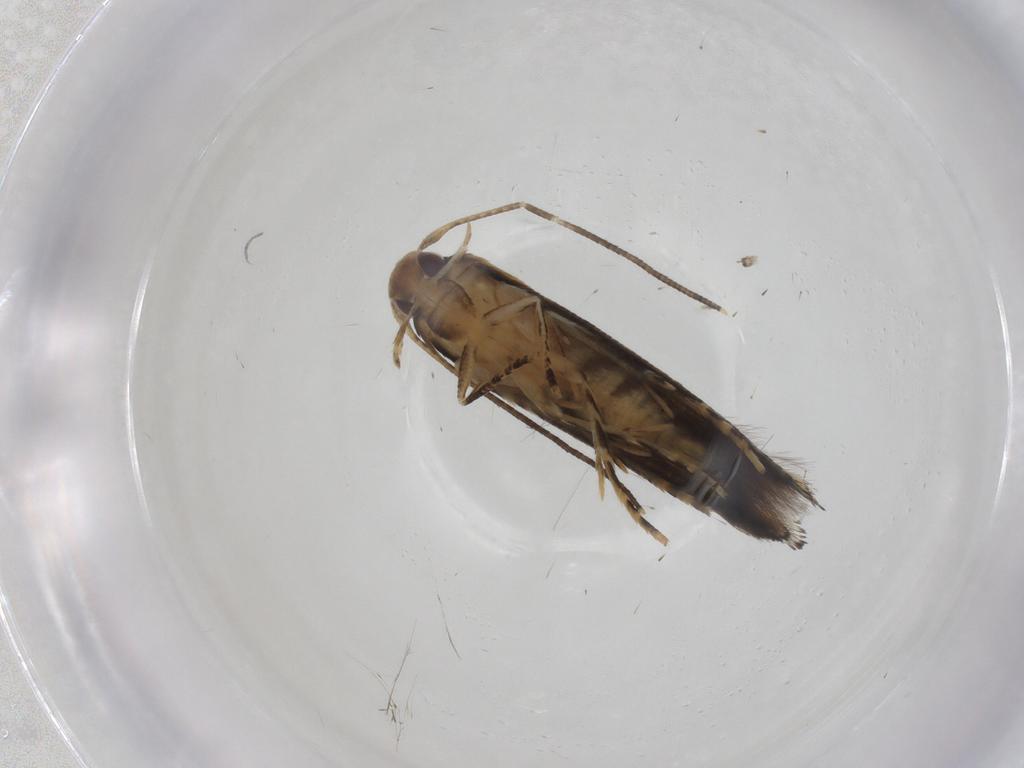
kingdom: Animalia
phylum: Arthropoda
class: Insecta
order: Lepidoptera
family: Momphidae
